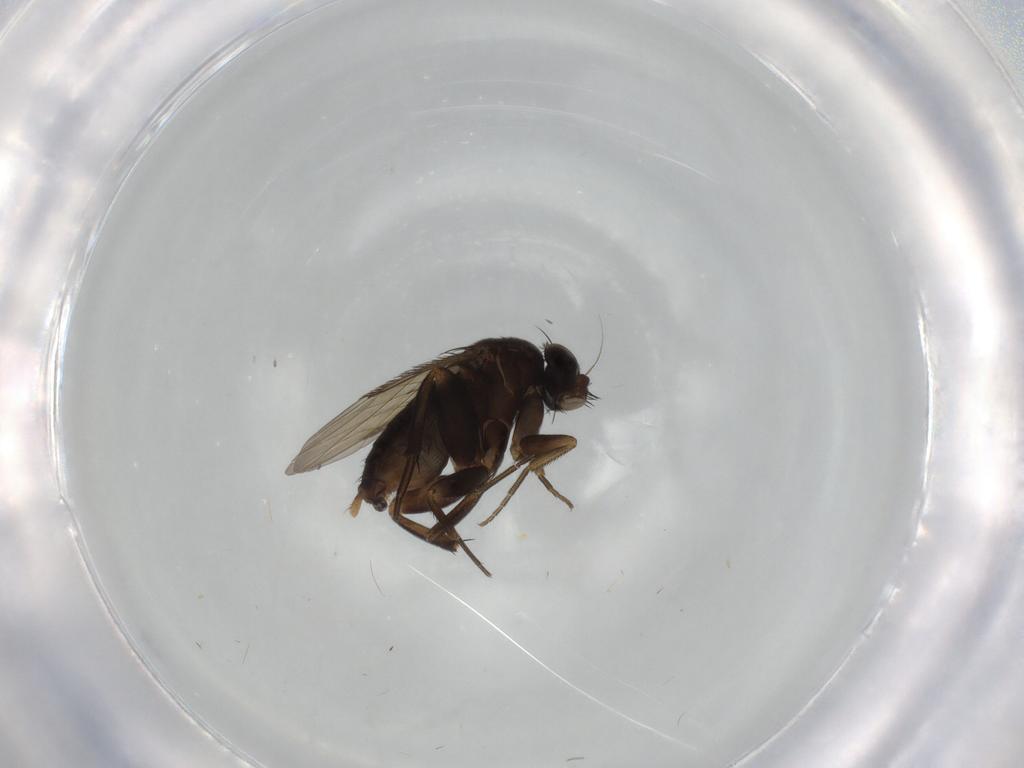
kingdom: Animalia
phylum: Arthropoda
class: Insecta
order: Diptera
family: Phoridae
